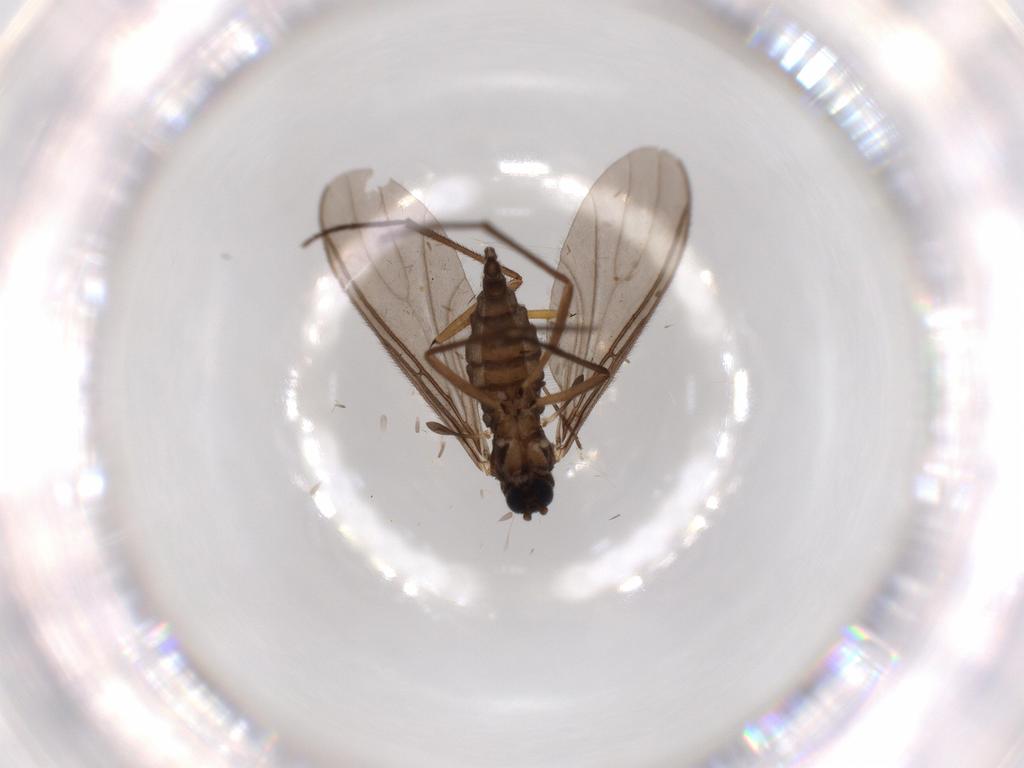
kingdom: Animalia
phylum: Arthropoda
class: Insecta
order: Diptera
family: Sciaridae
